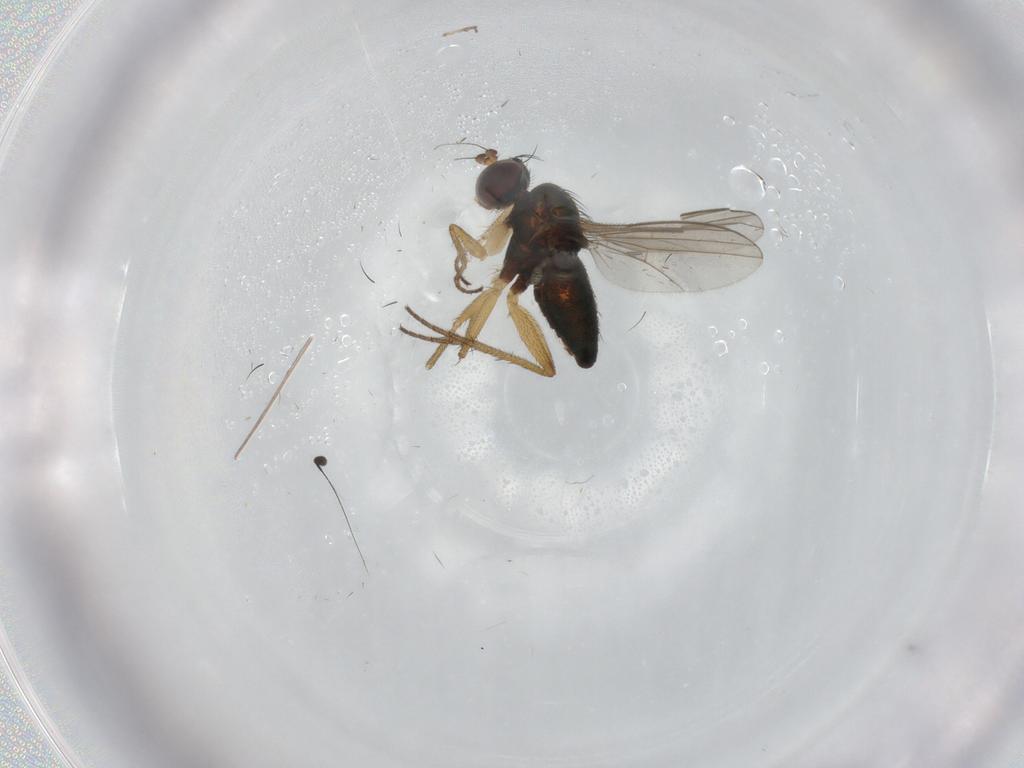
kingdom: Animalia
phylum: Arthropoda
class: Insecta
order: Diptera
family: Dolichopodidae
